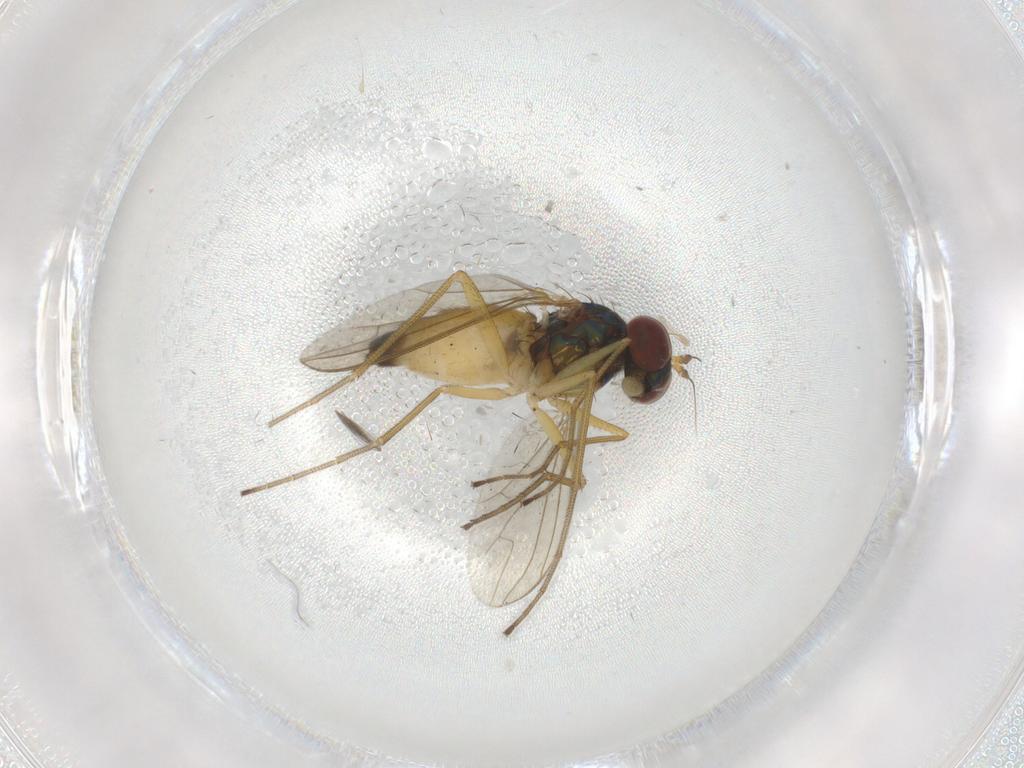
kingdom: Animalia
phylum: Arthropoda
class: Insecta
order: Diptera
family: Phoridae
